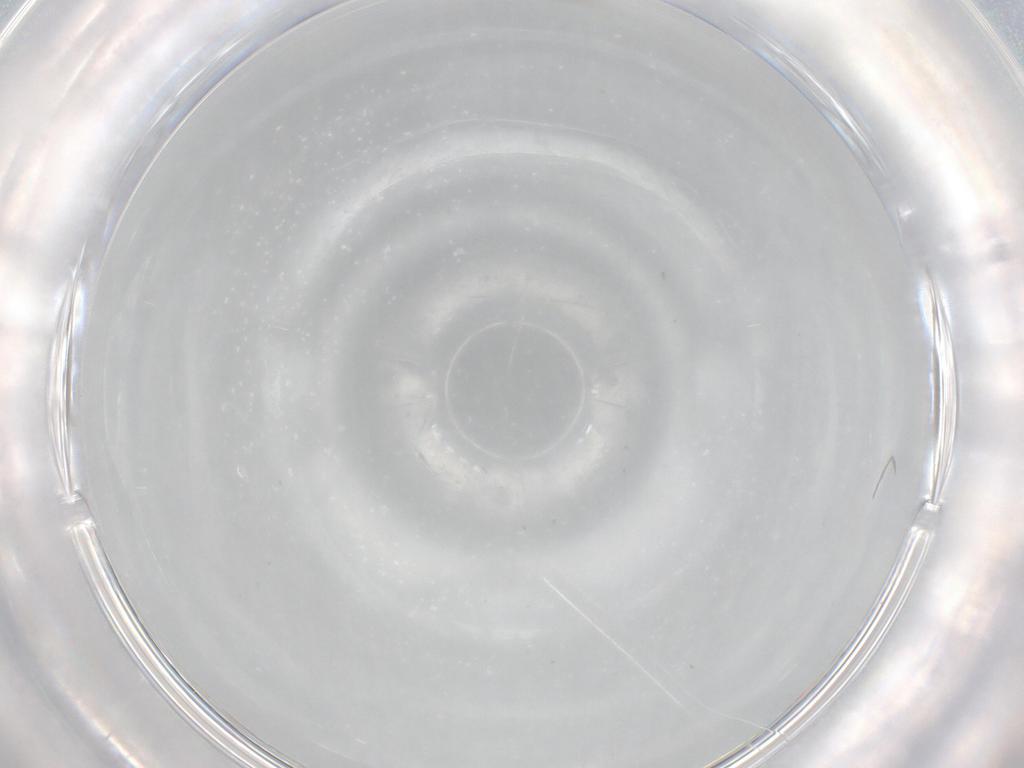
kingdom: Animalia
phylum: Arthropoda
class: Insecta
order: Diptera
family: Cecidomyiidae
